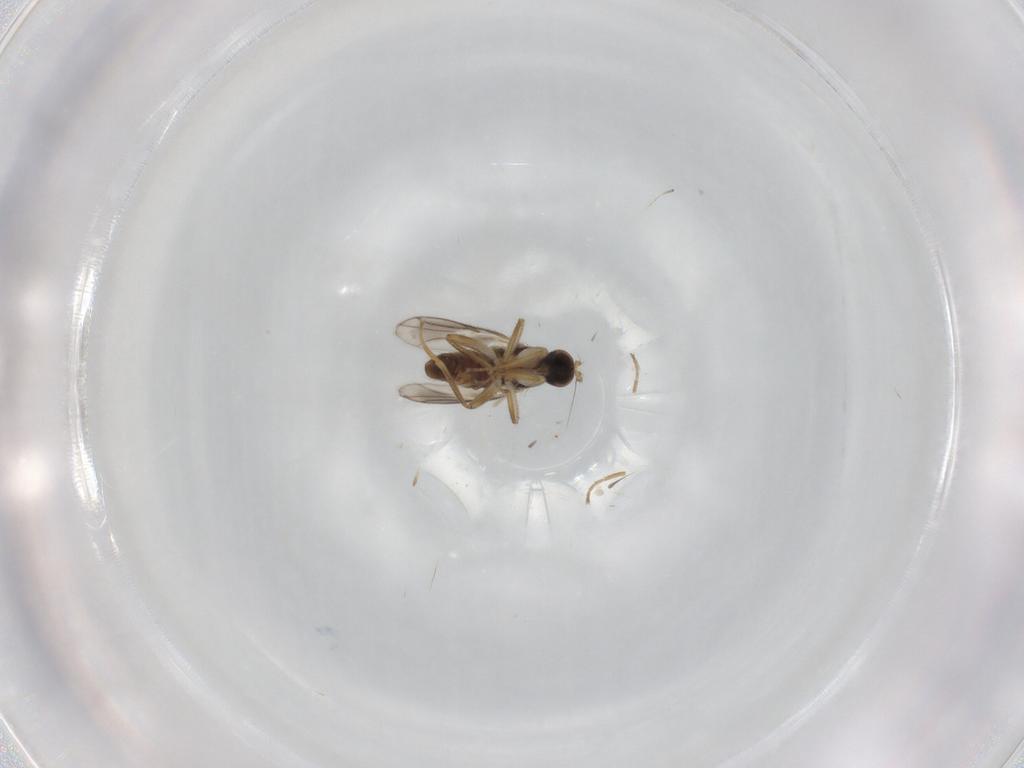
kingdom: Animalia
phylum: Arthropoda
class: Insecta
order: Diptera
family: Cecidomyiidae
